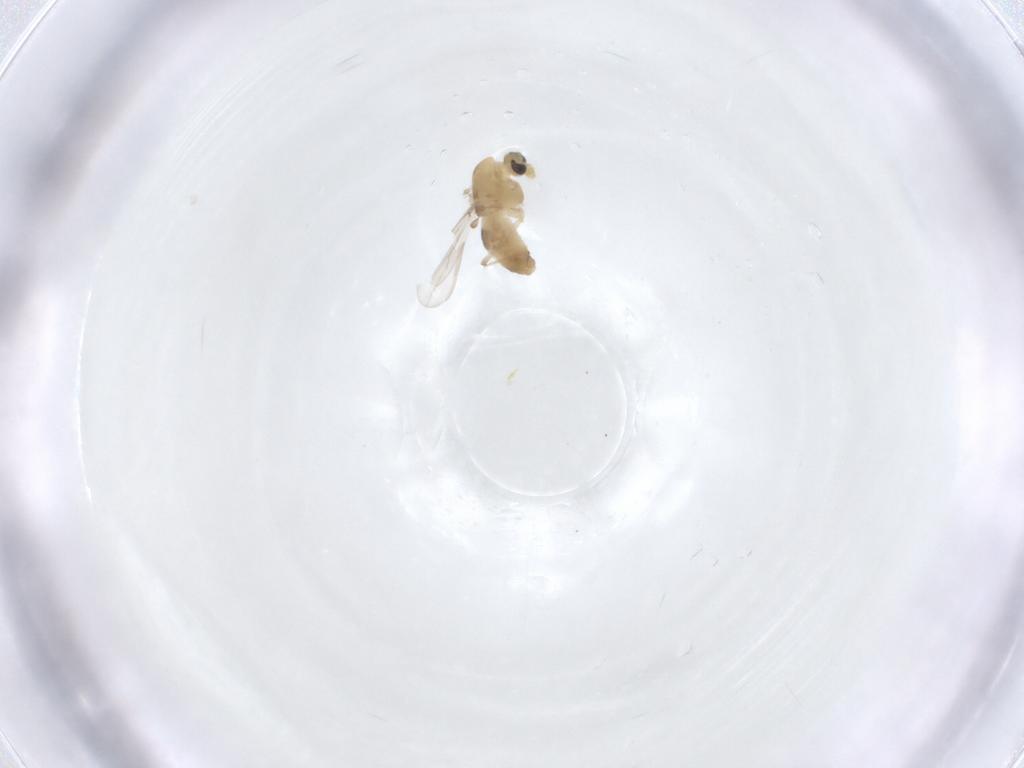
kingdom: Animalia
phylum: Arthropoda
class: Insecta
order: Diptera
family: Chironomidae
